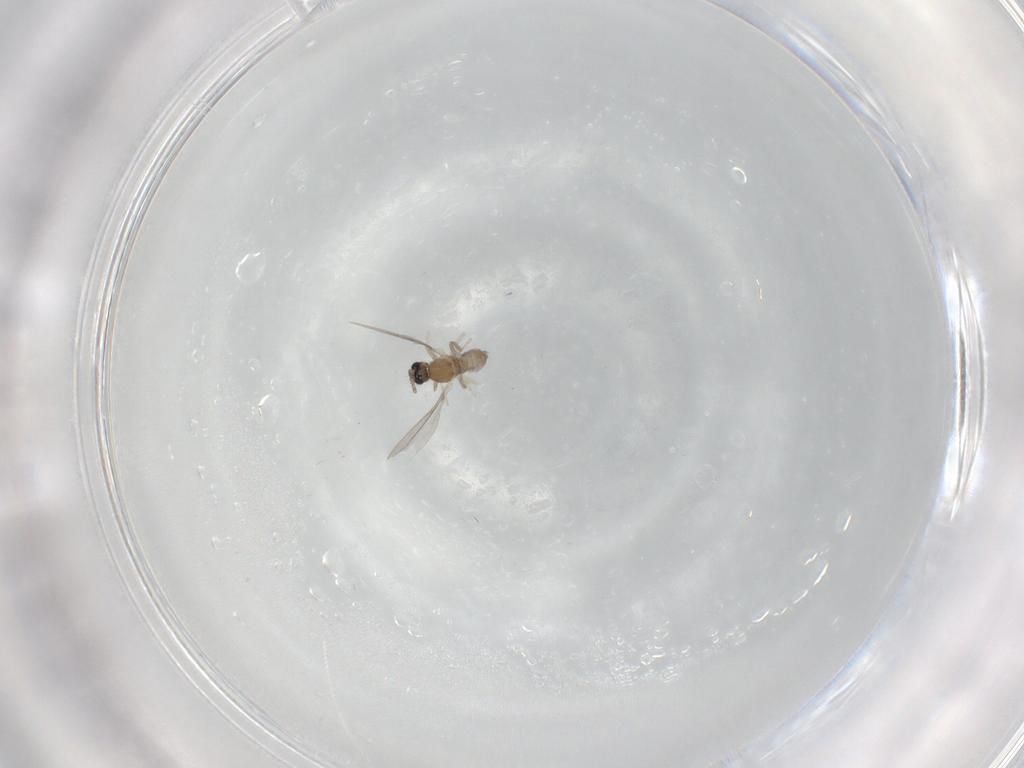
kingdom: Animalia
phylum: Arthropoda
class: Insecta
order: Diptera
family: Cecidomyiidae
